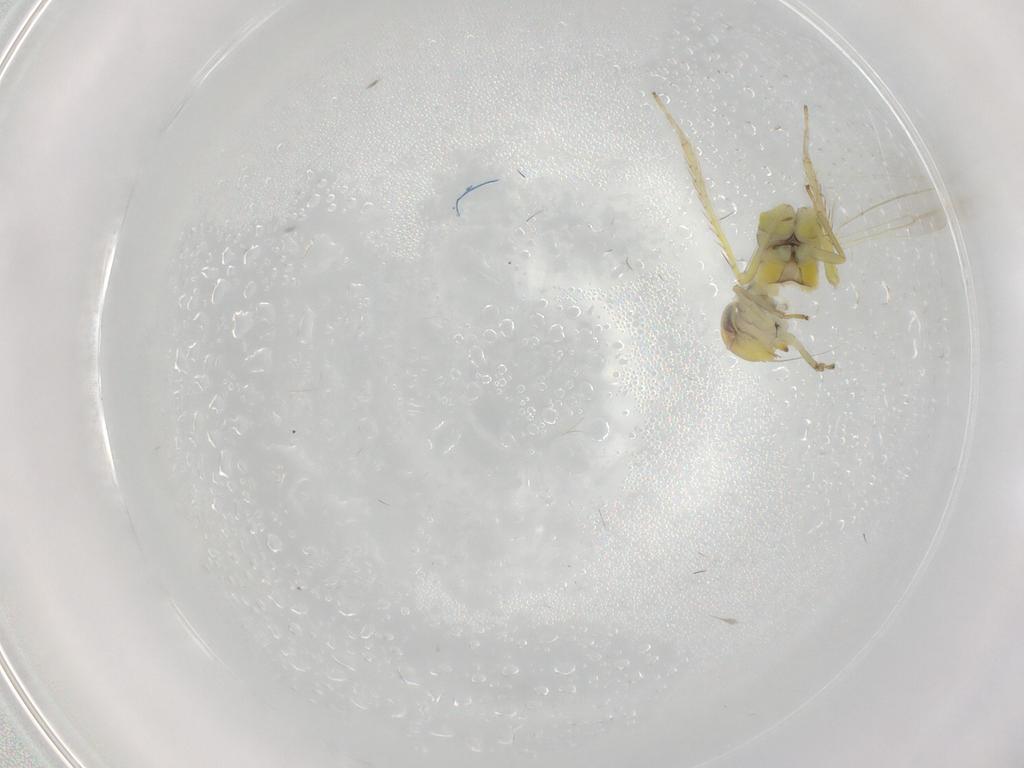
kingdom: Animalia
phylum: Arthropoda
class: Insecta
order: Hemiptera
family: Cicadellidae
